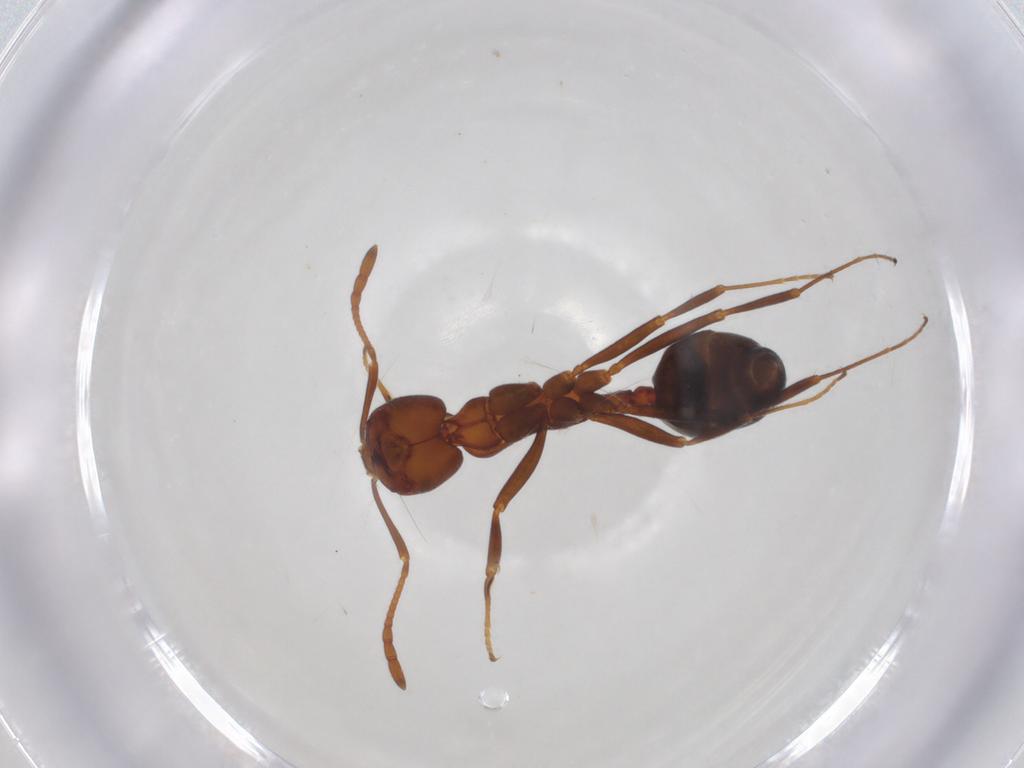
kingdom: Animalia
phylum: Arthropoda
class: Insecta
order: Hymenoptera
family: Formicidae
